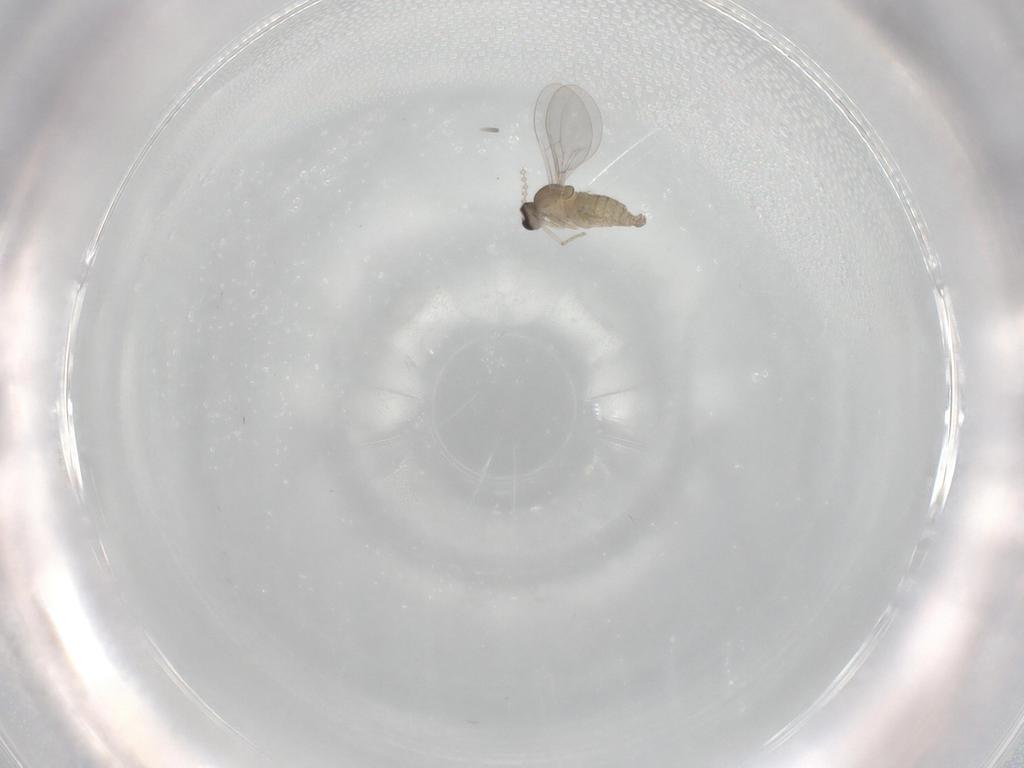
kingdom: Animalia
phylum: Arthropoda
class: Insecta
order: Diptera
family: Cecidomyiidae
